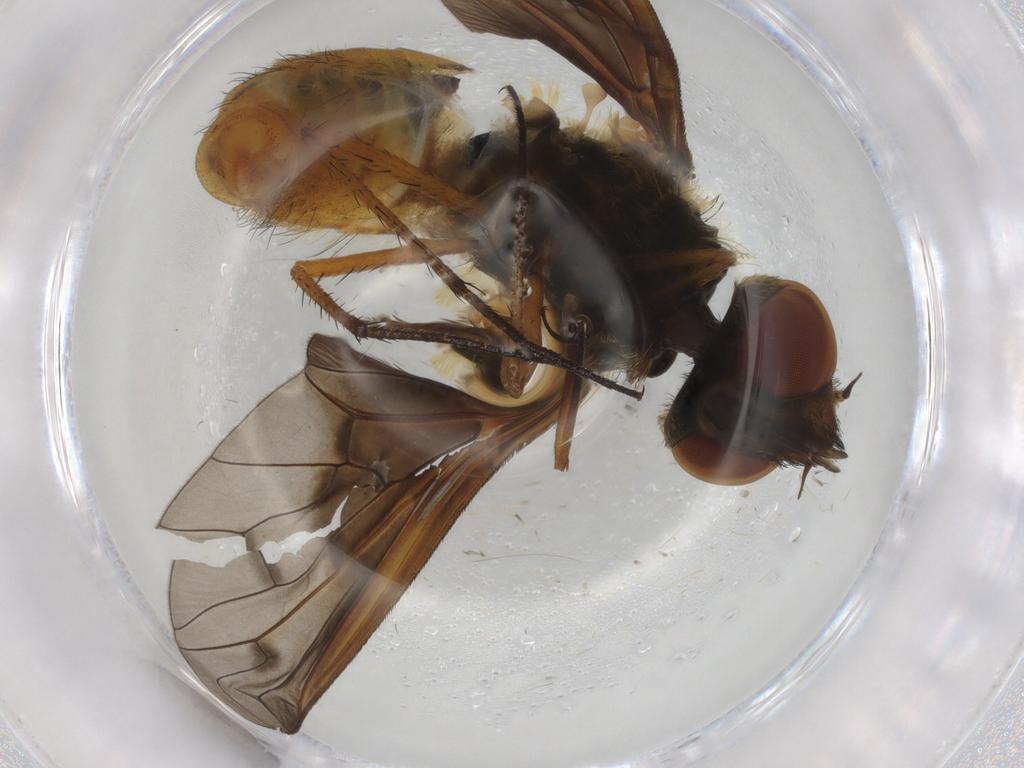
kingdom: Animalia
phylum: Arthropoda
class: Insecta
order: Diptera
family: Bombyliidae
